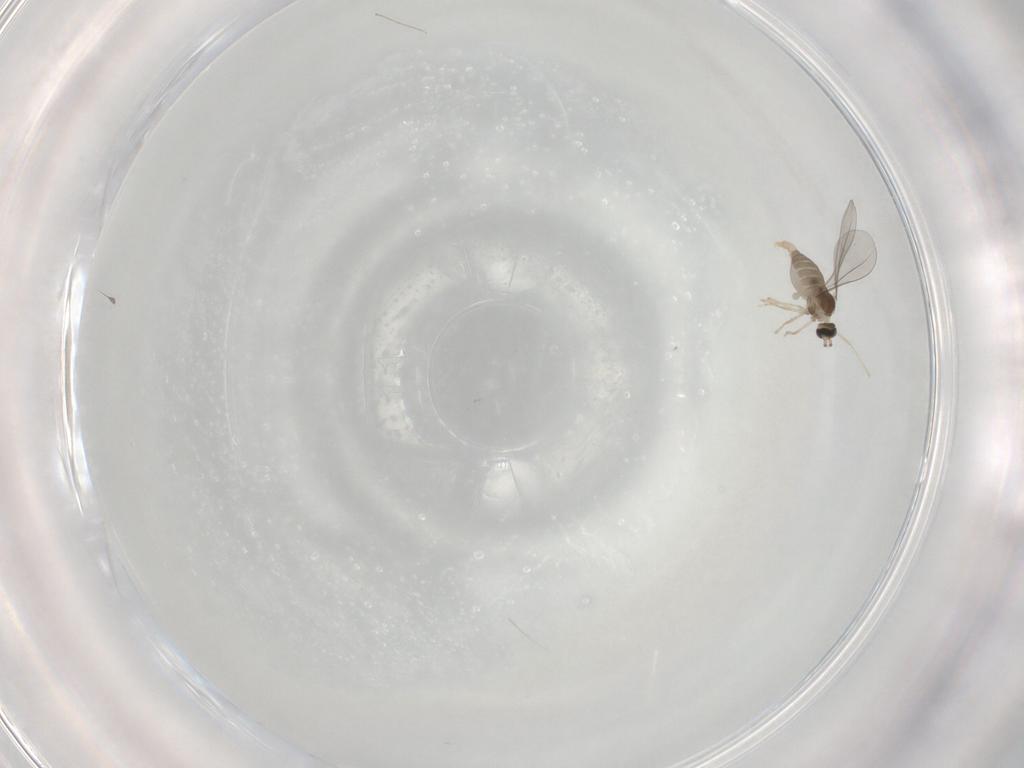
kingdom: Animalia
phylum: Arthropoda
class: Insecta
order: Diptera
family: Cecidomyiidae
